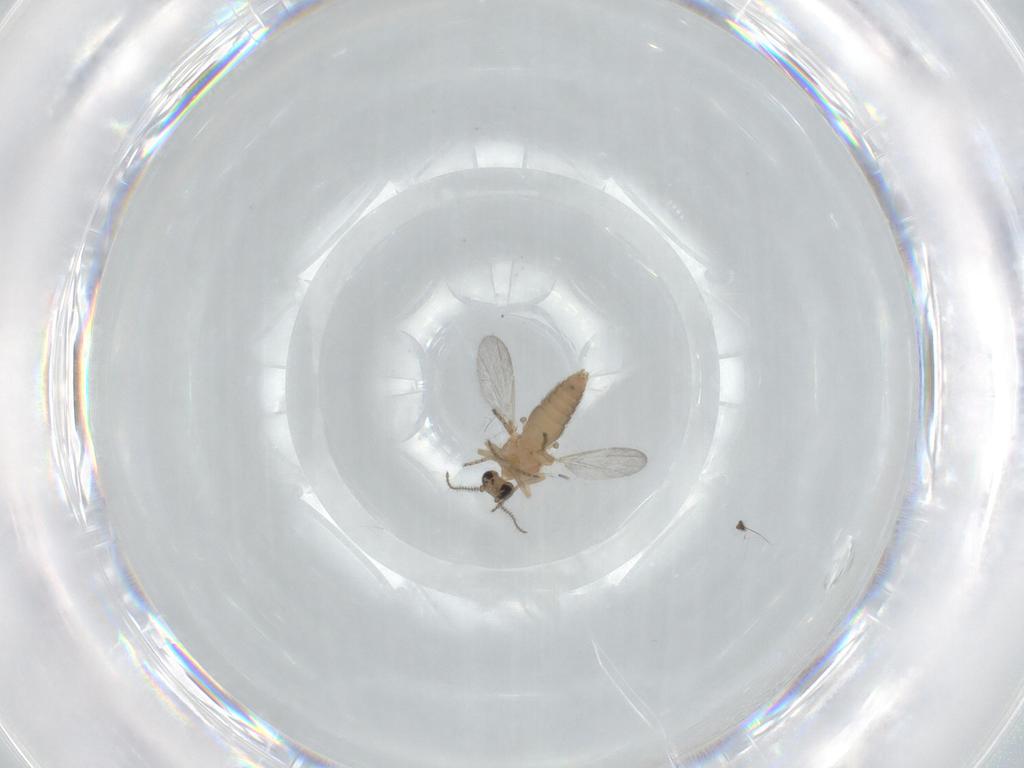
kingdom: Animalia
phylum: Arthropoda
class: Insecta
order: Diptera
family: Dolichopodidae
